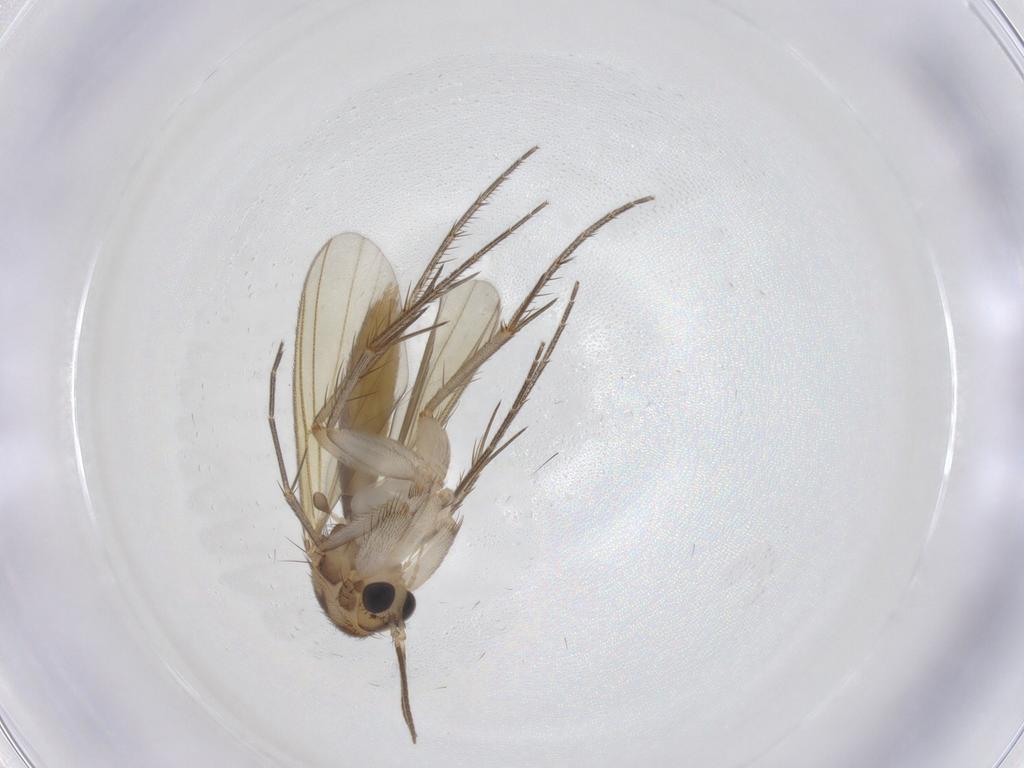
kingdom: Animalia
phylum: Arthropoda
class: Insecta
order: Diptera
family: Mycetophilidae
